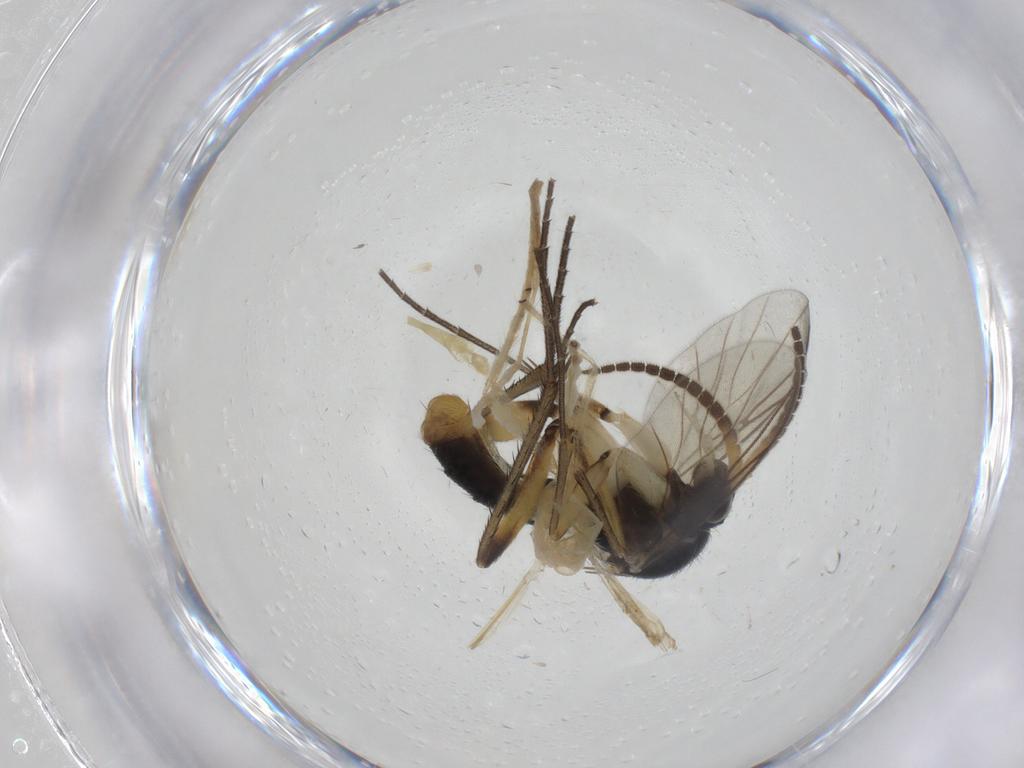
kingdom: Animalia
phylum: Arthropoda
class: Insecta
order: Diptera
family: Mycetophilidae
